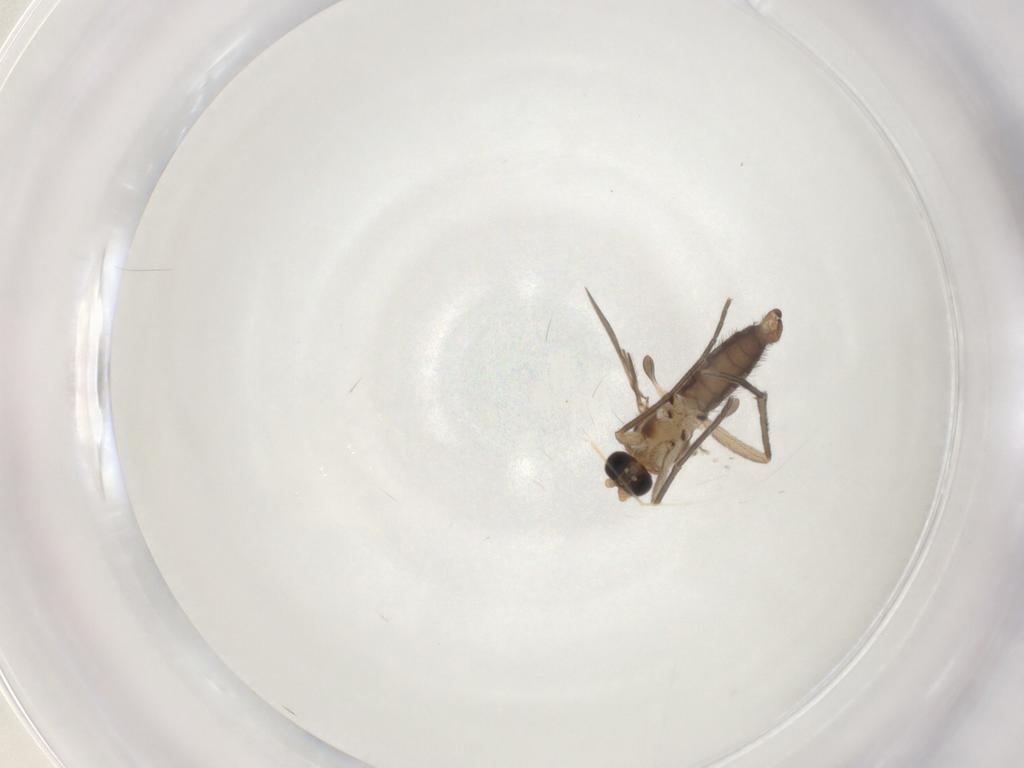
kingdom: Animalia
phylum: Arthropoda
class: Insecta
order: Diptera
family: Sciaridae
